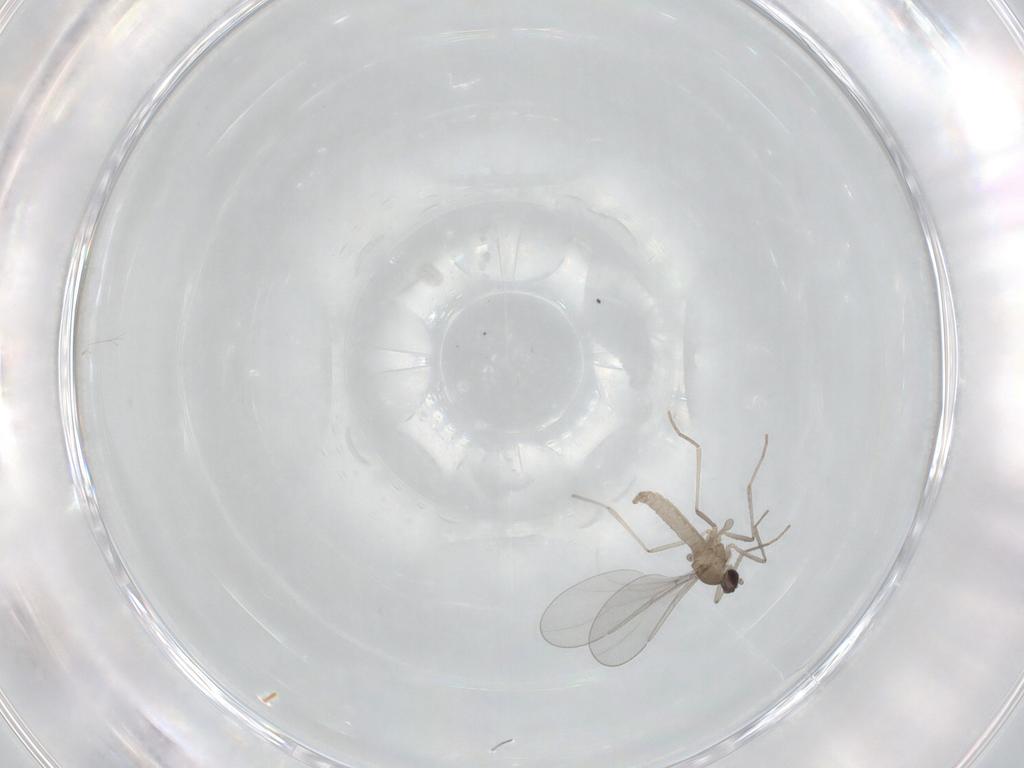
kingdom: Animalia
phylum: Arthropoda
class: Insecta
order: Diptera
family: Sciaridae
